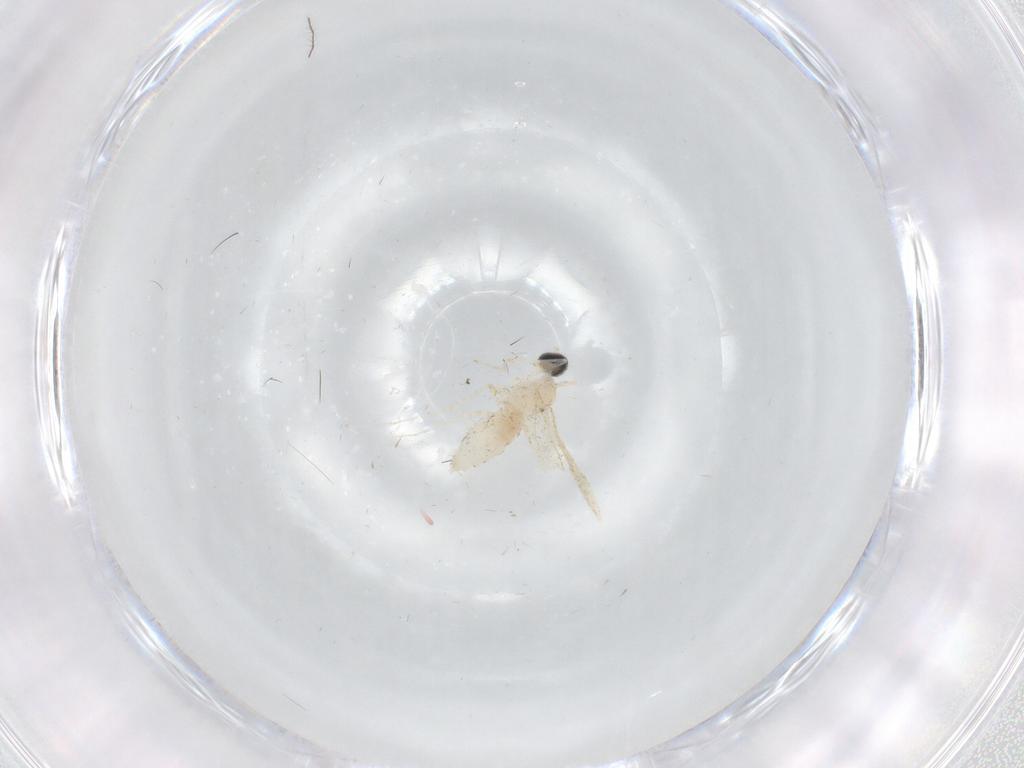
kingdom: Animalia
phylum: Arthropoda
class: Insecta
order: Diptera
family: Cecidomyiidae
